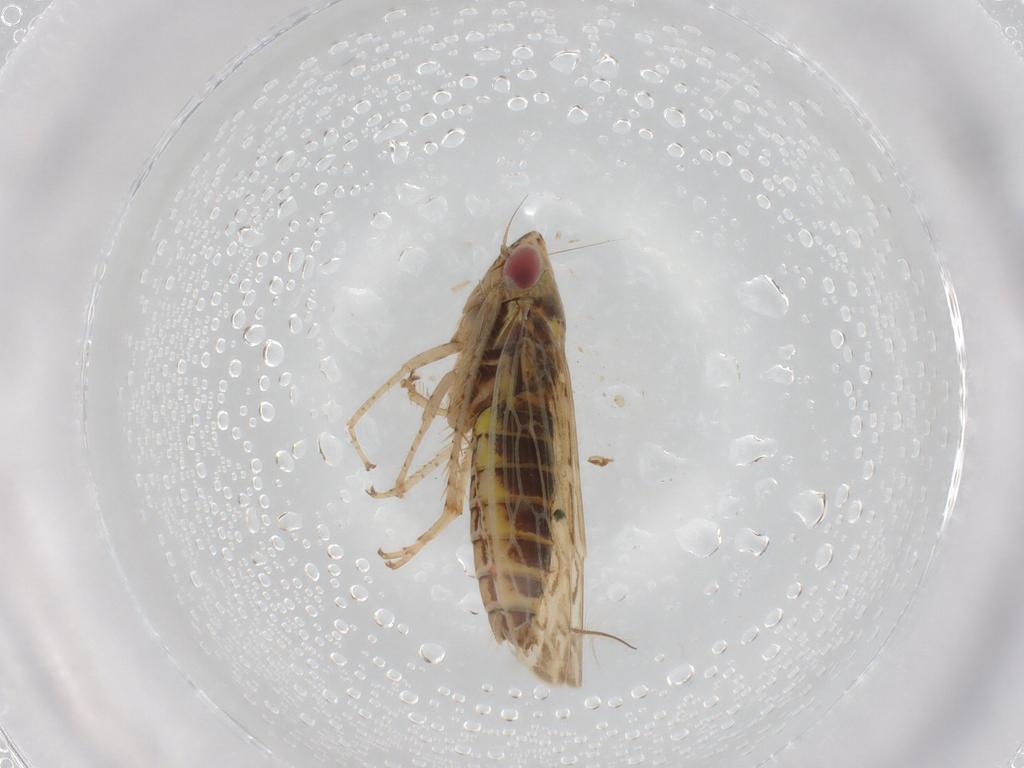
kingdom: Animalia
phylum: Arthropoda
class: Insecta
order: Hemiptera
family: Cicadellidae
